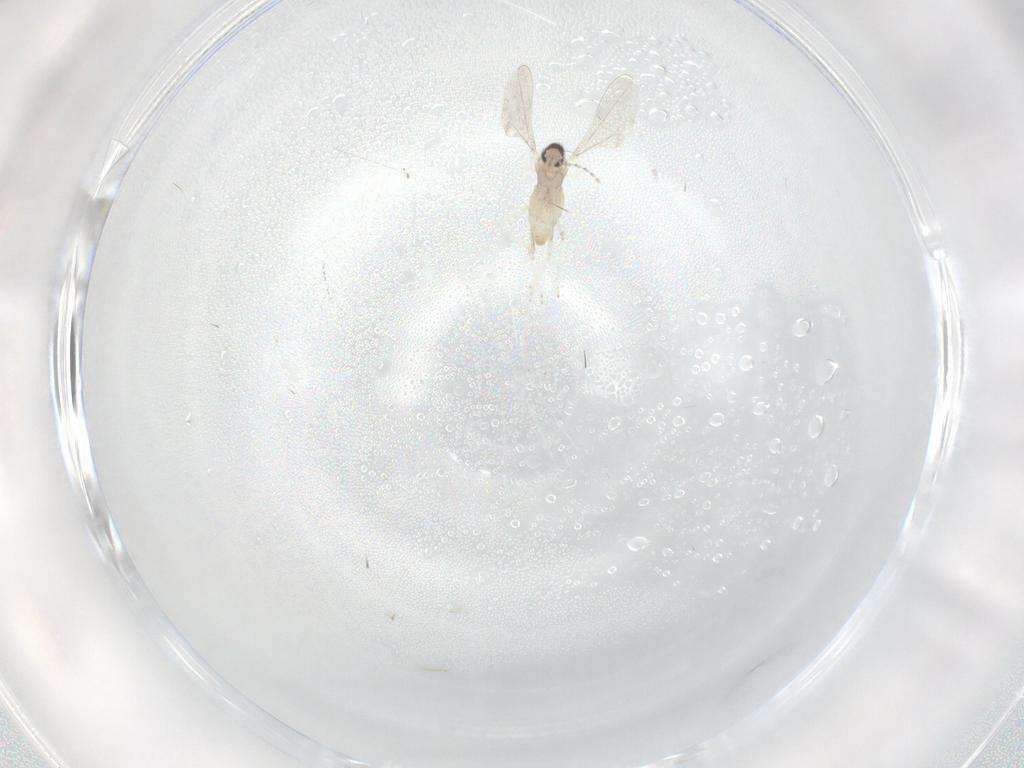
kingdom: Animalia
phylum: Arthropoda
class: Insecta
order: Diptera
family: Cecidomyiidae
